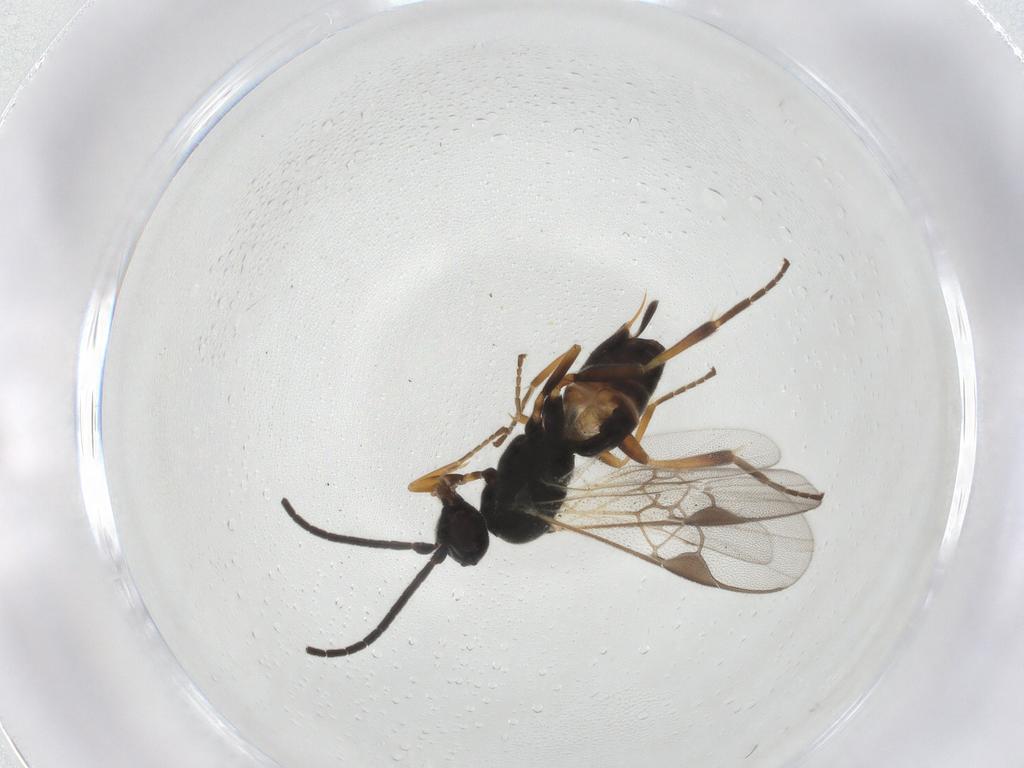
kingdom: Animalia
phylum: Arthropoda
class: Insecta
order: Hymenoptera
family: Braconidae
